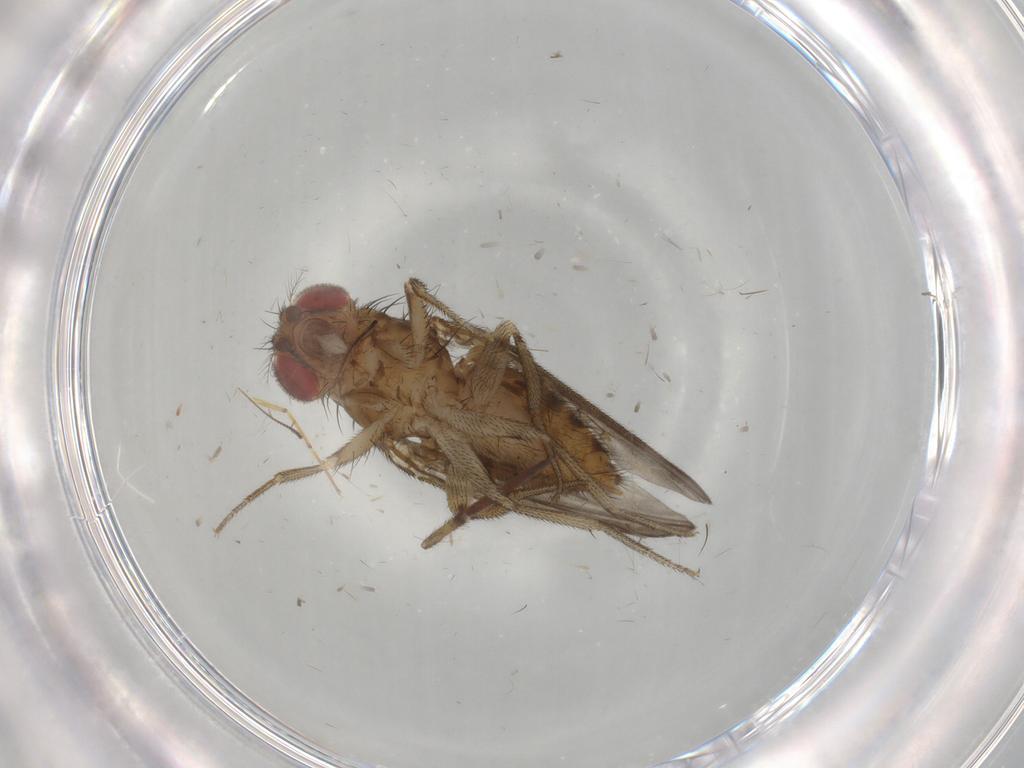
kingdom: Animalia
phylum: Arthropoda
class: Insecta
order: Diptera
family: Drosophilidae
